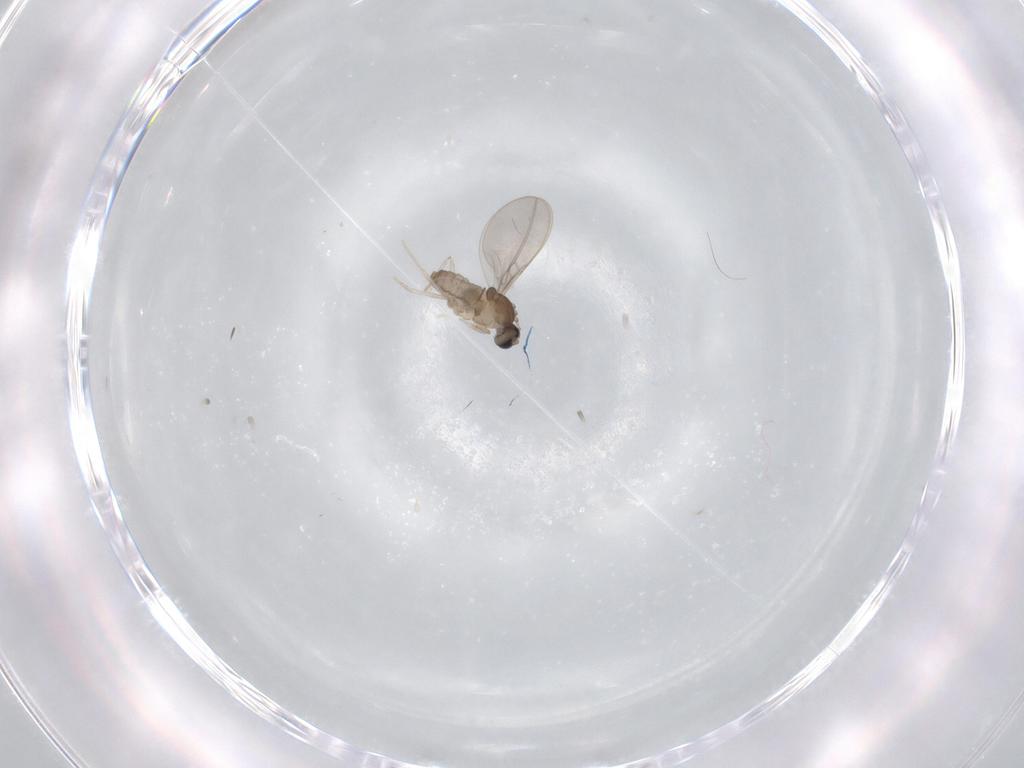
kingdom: Animalia
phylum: Arthropoda
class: Insecta
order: Diptera
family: Cecidomyiidae
